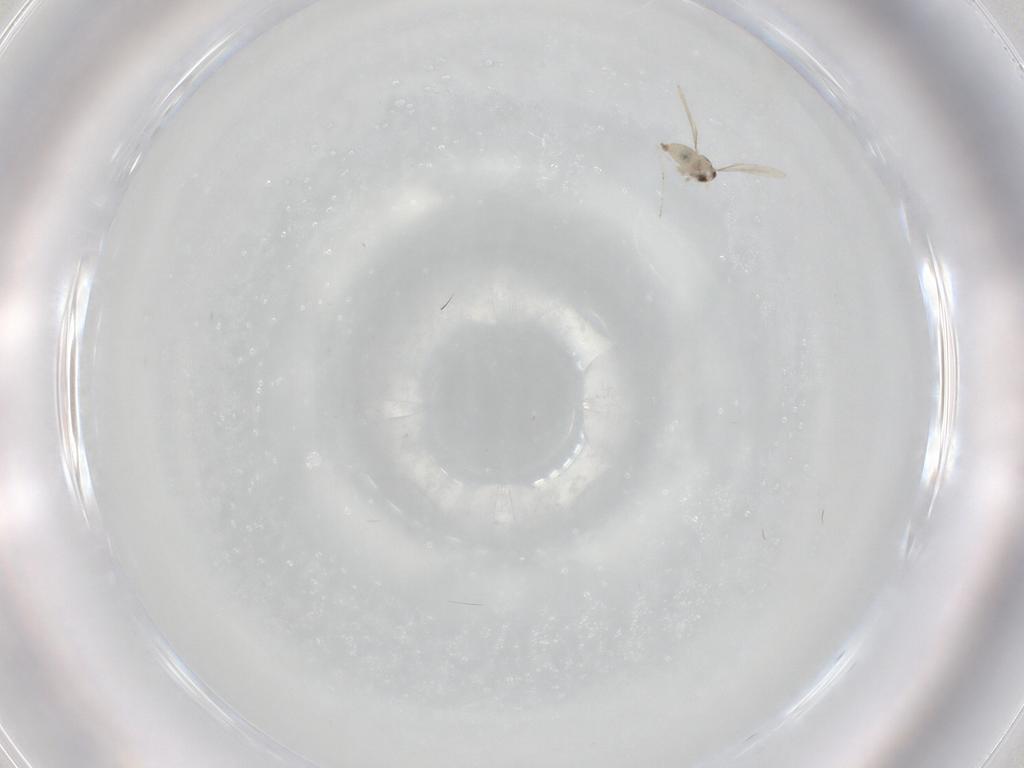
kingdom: Animalia
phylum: Arthropoda
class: Insecta
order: Diptera
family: Cecidomyiidae
